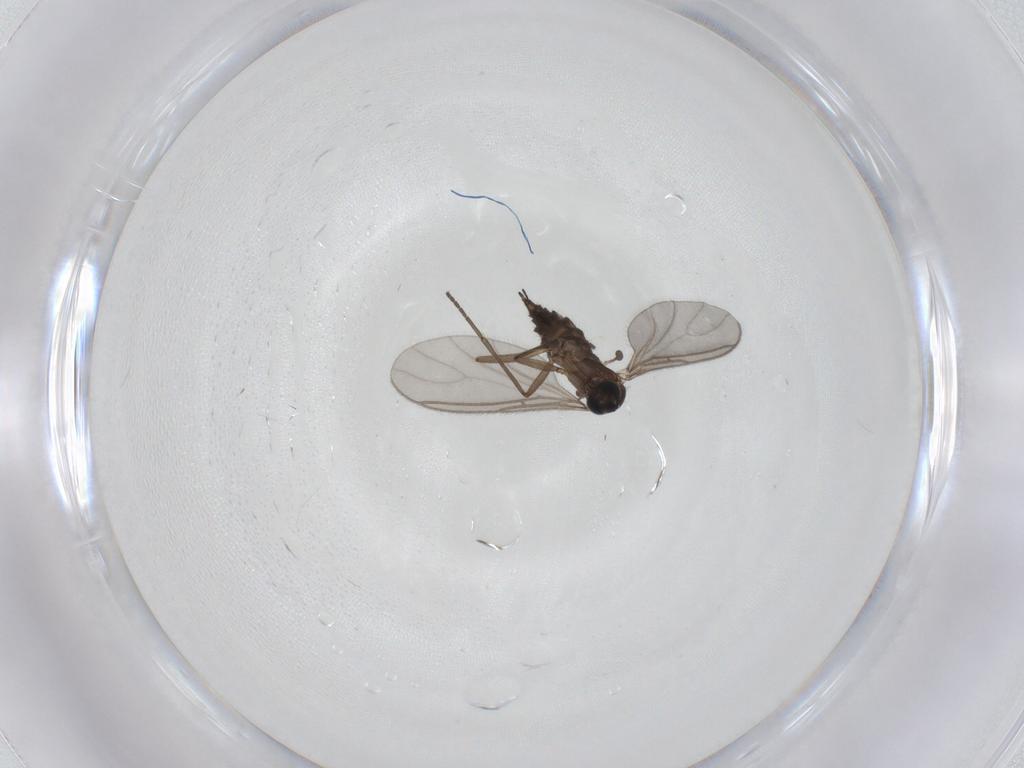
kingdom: Animalia
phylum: Arthropoda
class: Insecta
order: Diptera
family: Sciaridae
